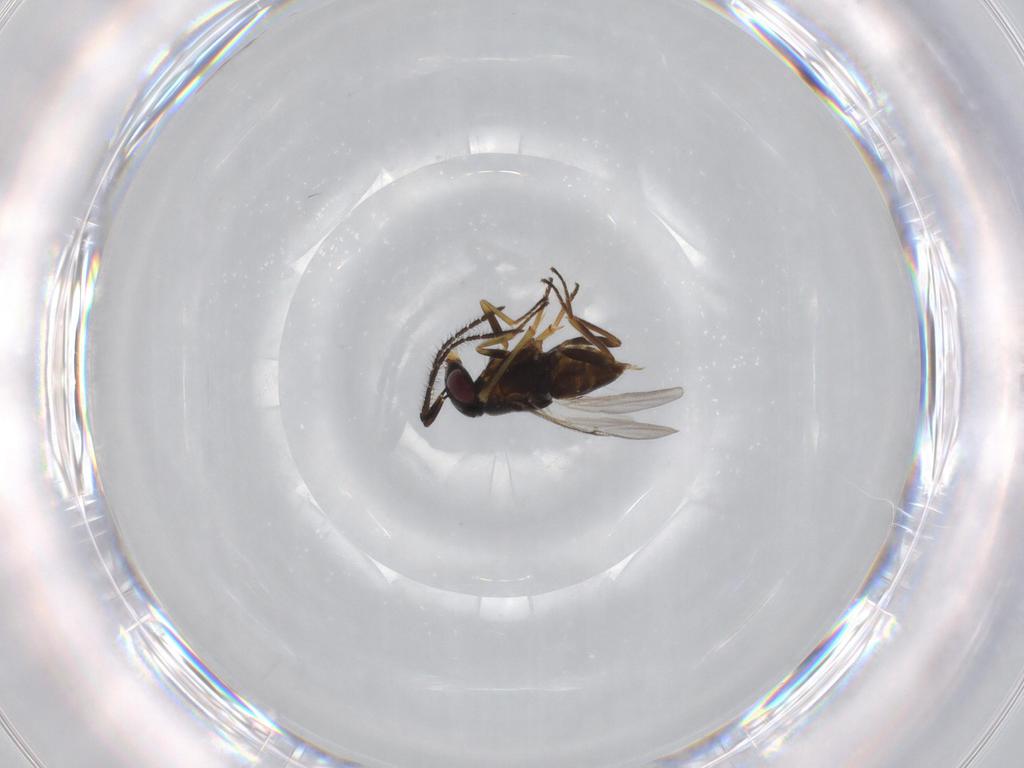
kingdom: Animalia
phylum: Arthropoda
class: Insecta
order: Hymenoptera
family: Encyrtidae
